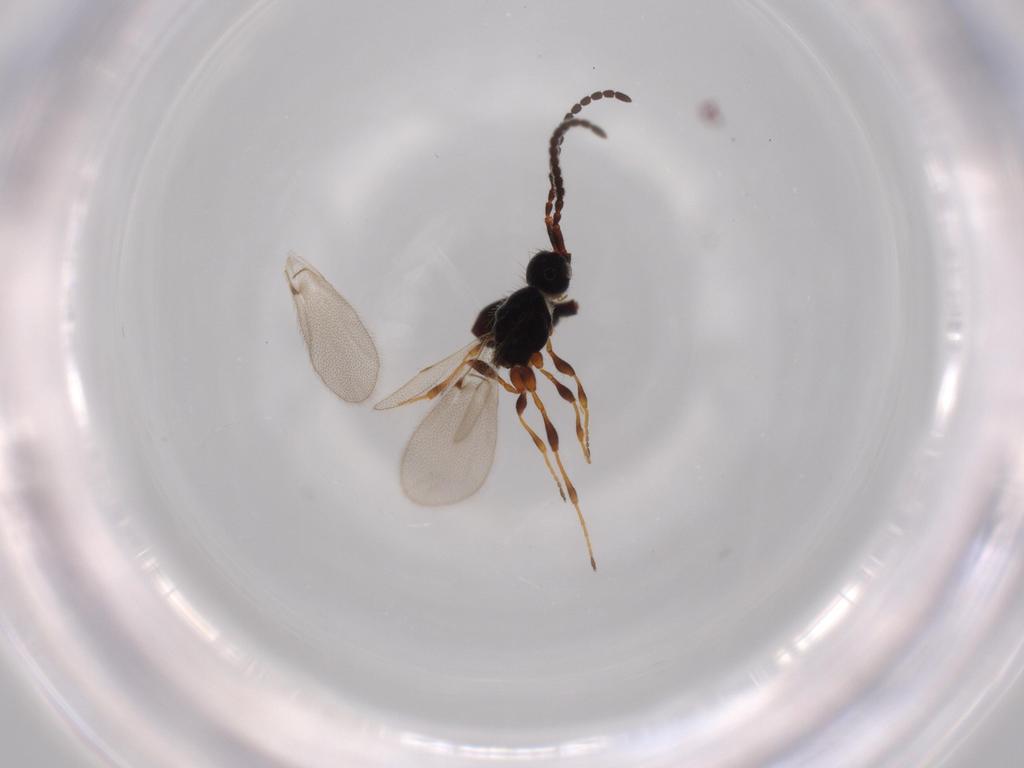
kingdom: Animalia
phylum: Arthropoda
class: Insecta
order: Hymenoptera
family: Diapriidae
